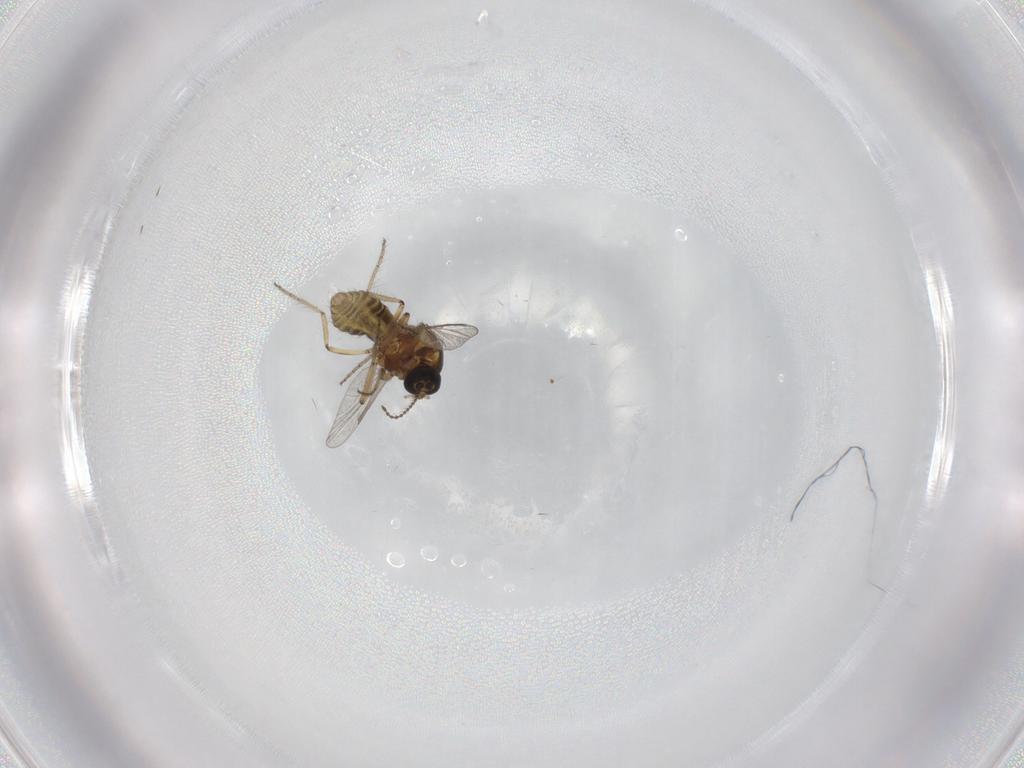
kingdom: Animalia
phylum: Arthropoda
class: Insecta
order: Diptera
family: Ceratopogonidae
